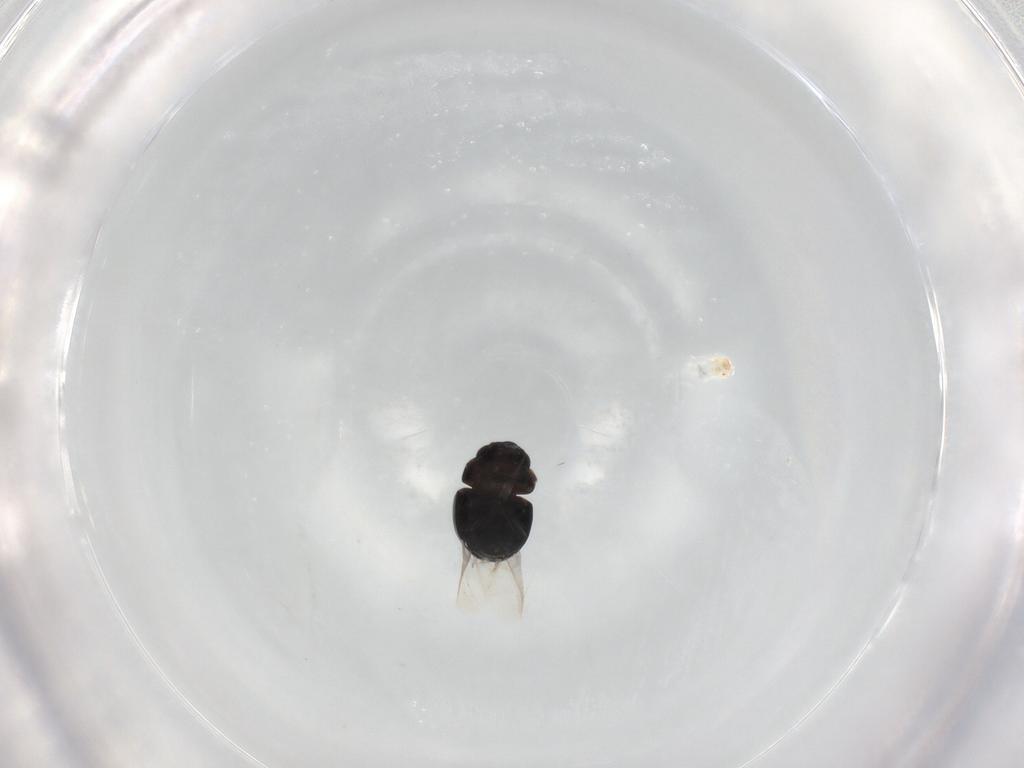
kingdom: Animalia
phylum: Arthropoda
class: Insecta
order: Coleoptera
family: Cybocephalidae
